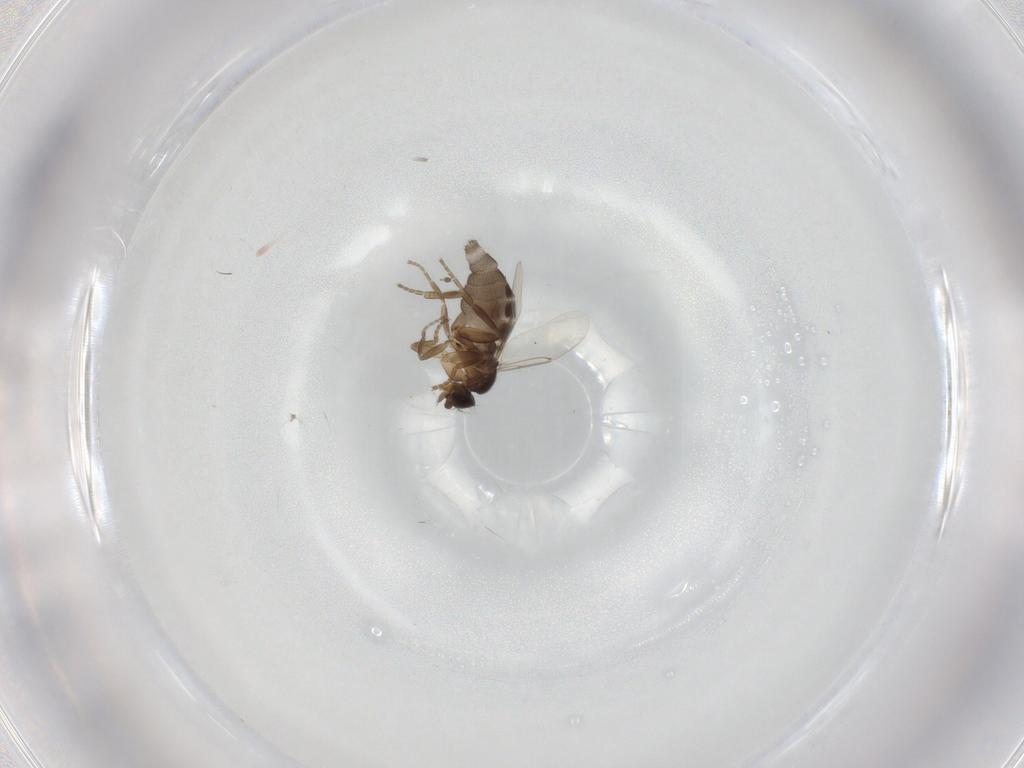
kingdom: Animalia
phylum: Arthropoda
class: Insecta
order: Diptera
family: Phoridae
